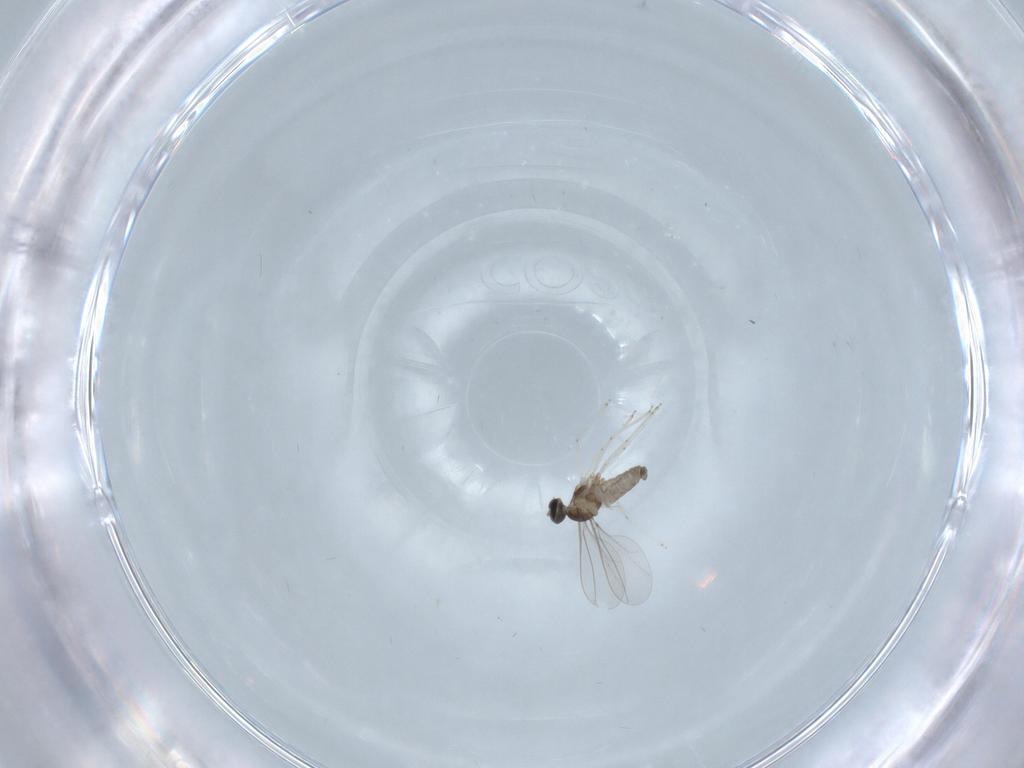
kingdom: Animalia
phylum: Arthropoda
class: Insecta
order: Diptera
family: Cecidomyiidae
